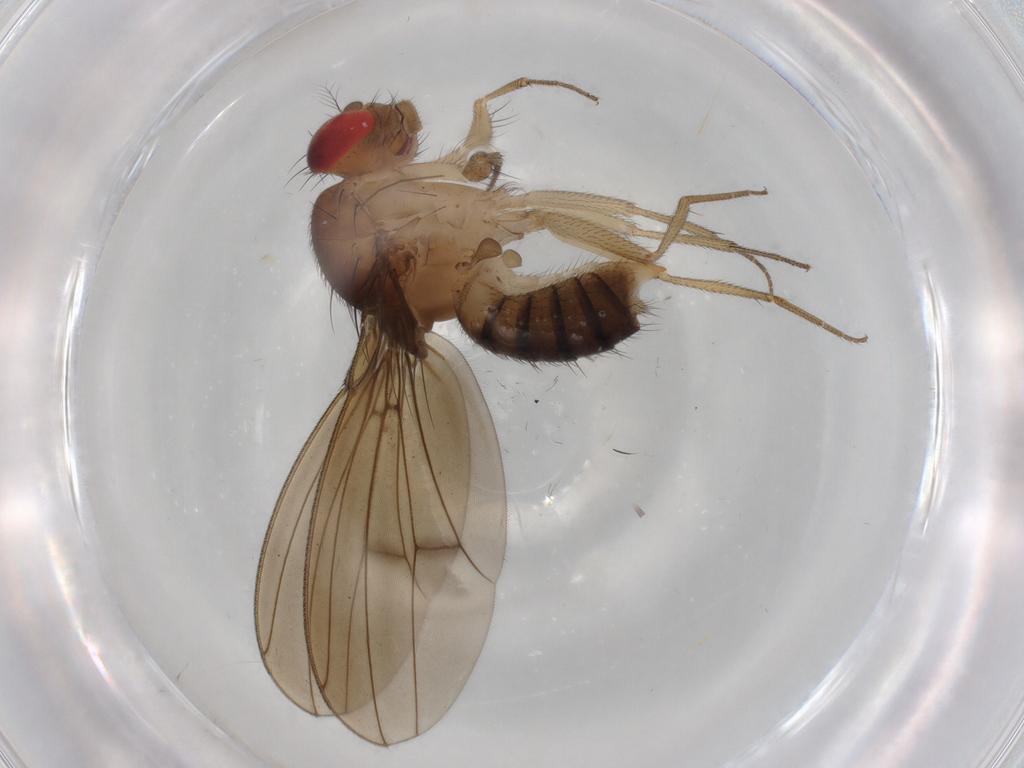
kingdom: Animalia
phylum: Arthropoda
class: Insecta
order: Diptera
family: Drosophilidae
